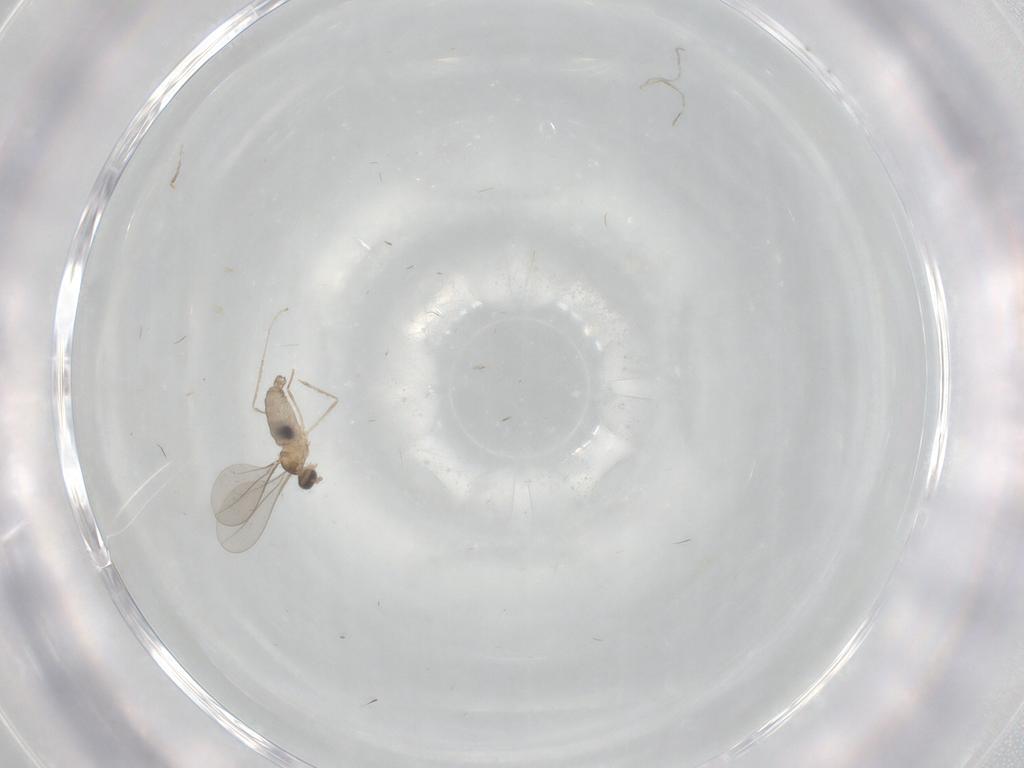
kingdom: Animalia
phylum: Arthropoda
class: Insecta
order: Diptera
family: Cecidomyiidae
